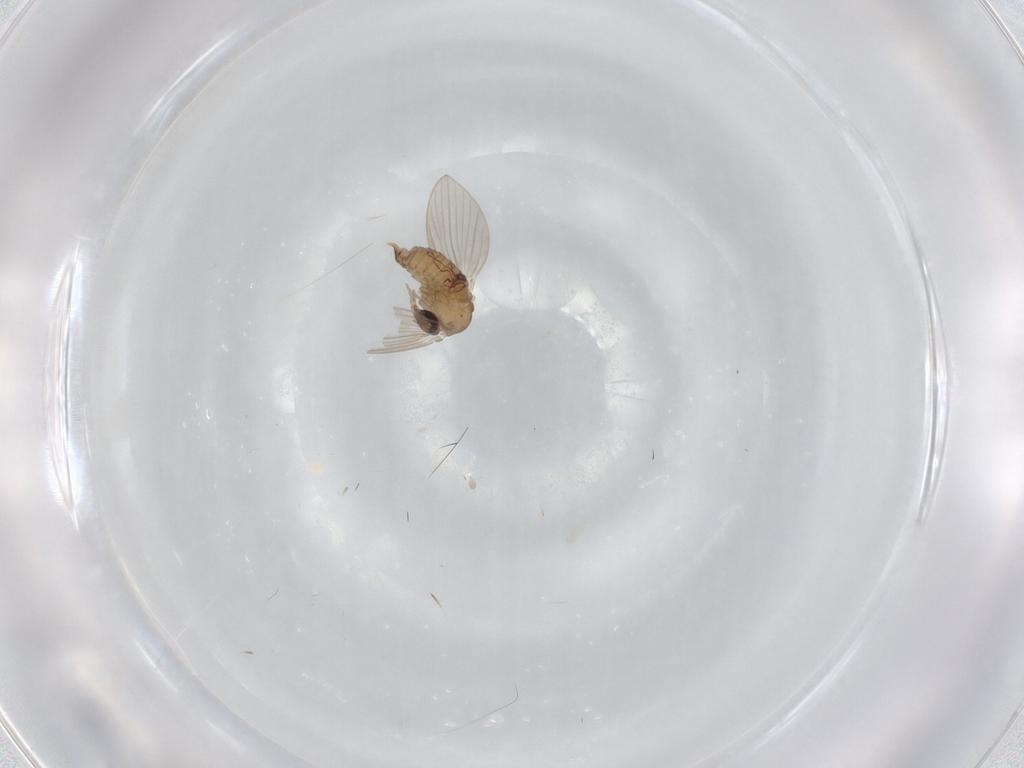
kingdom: Animalia
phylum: Arthropoda
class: Insecta
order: Diptera
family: Psychodidae
